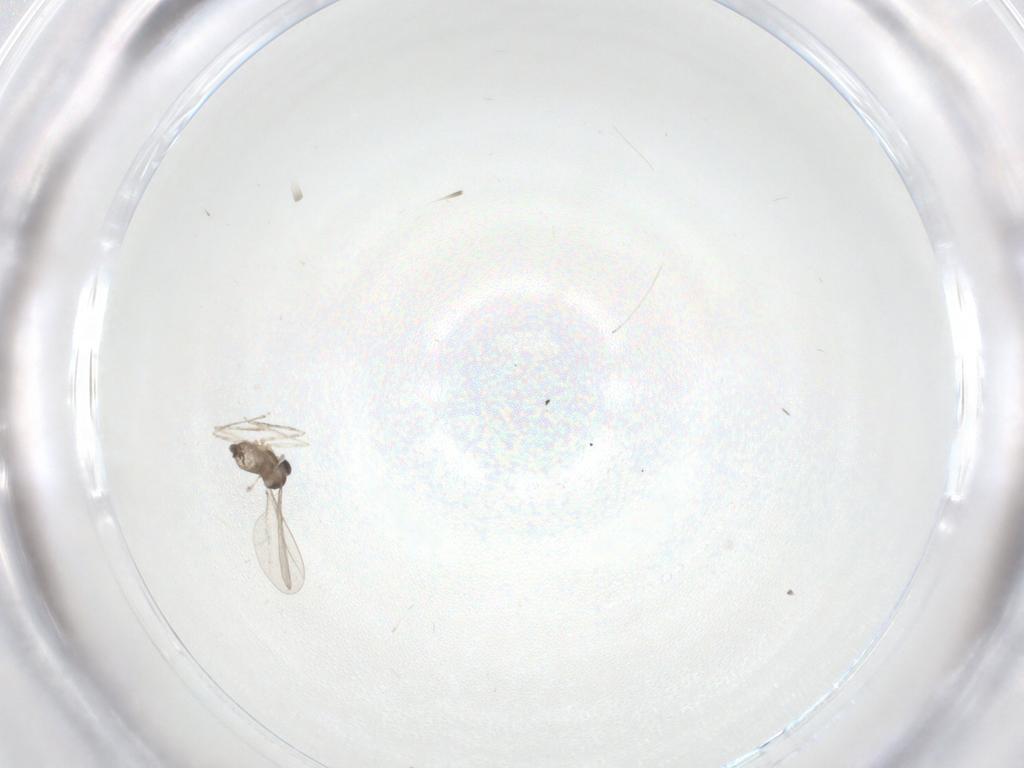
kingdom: Animalia
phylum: Arthropoda
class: Insecta
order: Diptera
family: Cecidomyiidae
